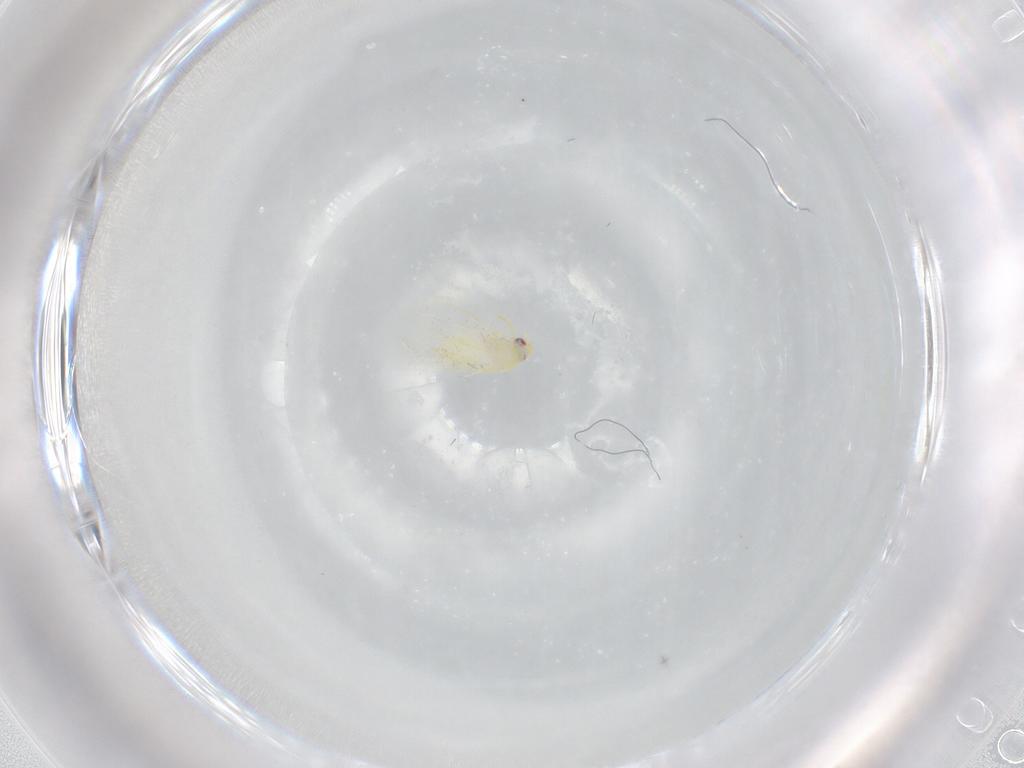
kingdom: Animalia
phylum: Arthropoda
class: Insecta
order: Hemiptera
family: Aleyrodidae
